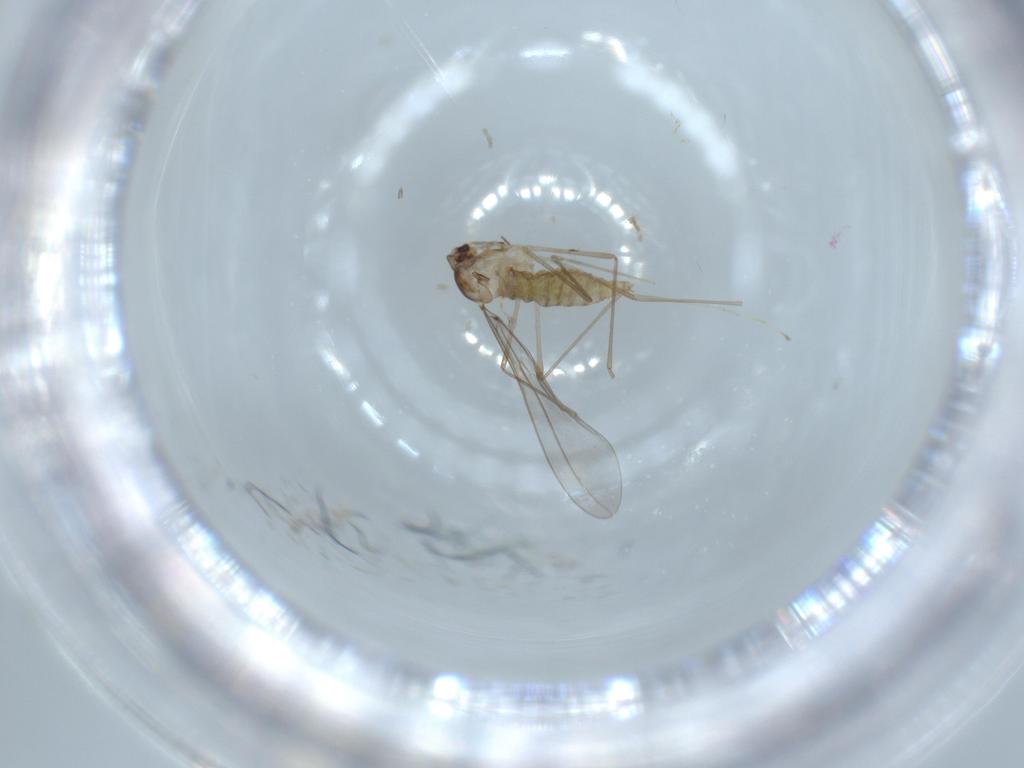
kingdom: Animalia
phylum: Arthropoda
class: Insecta
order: Diptera
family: Cecidomyiidae
